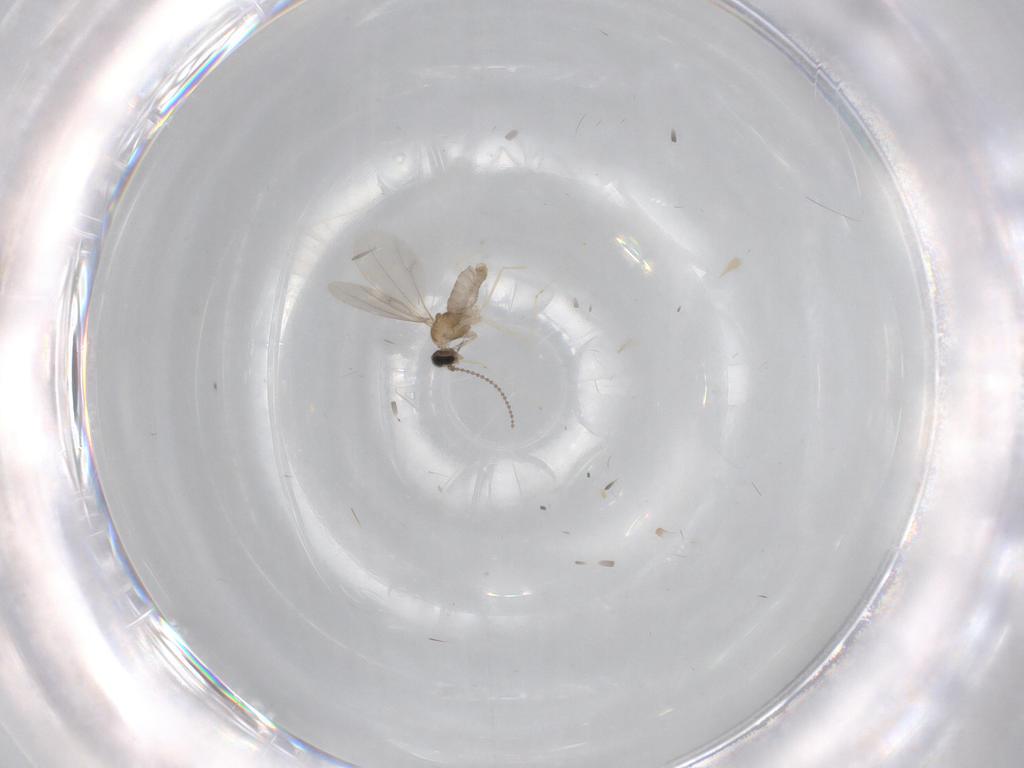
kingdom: Animalia
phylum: Arthropoda
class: Insecta
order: Diptera
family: Cecidomyiidae
